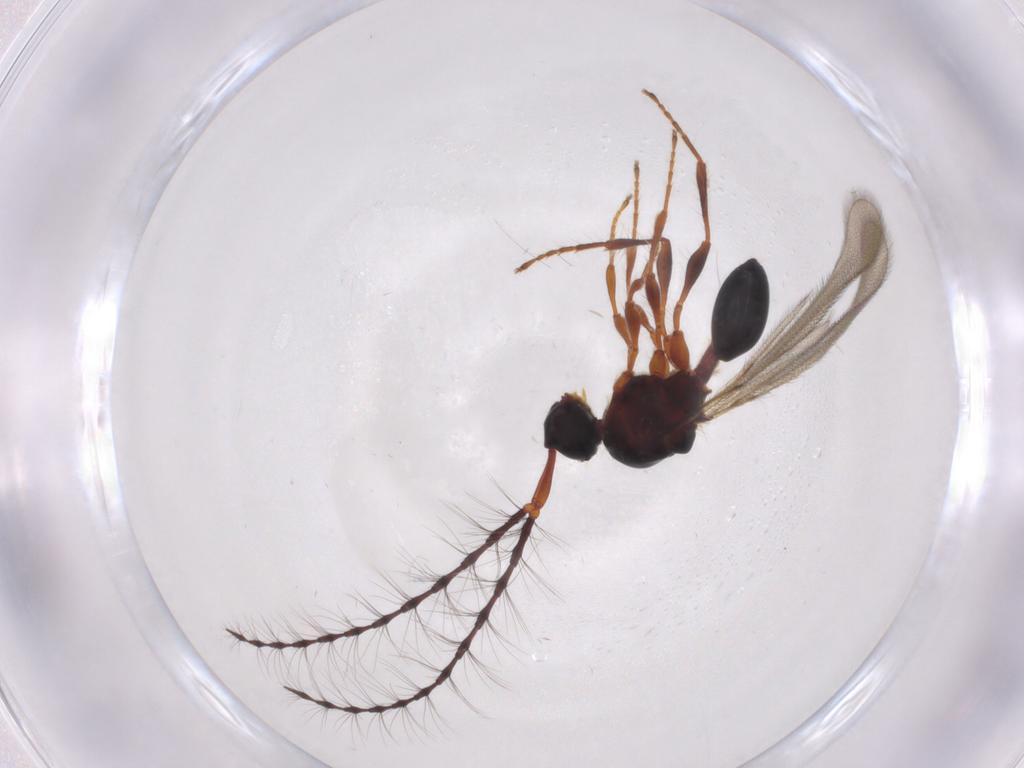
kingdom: Animalia
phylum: Arthropoda
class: Insecta
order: Hymenoptera
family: Diapriidae
